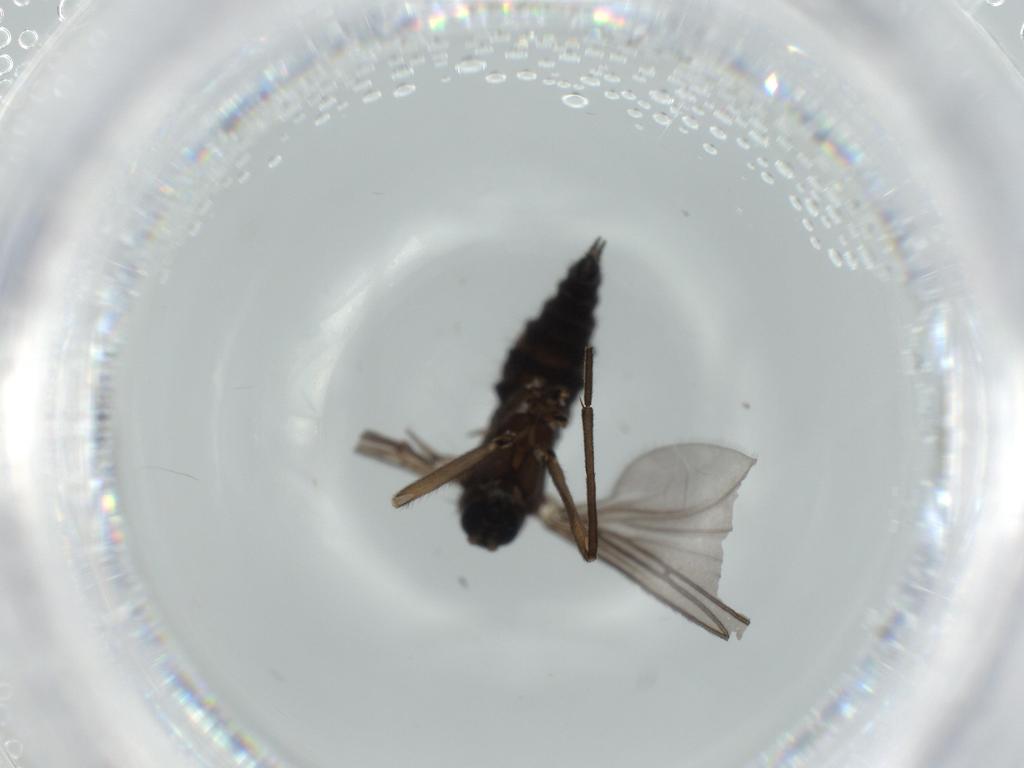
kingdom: Animalia
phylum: Arthropoda
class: Insecta
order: Diptera
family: Sciaridae
